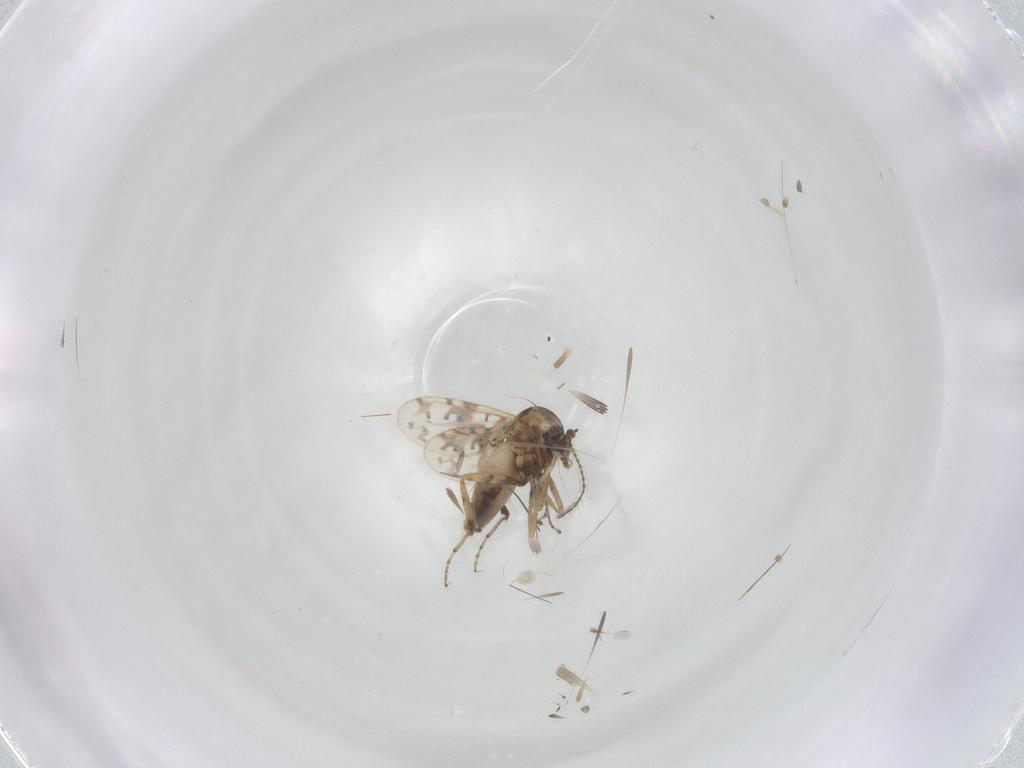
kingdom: Animalia
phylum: Arthropoda
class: Insecta
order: Diptera
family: Ceratopogonidae
